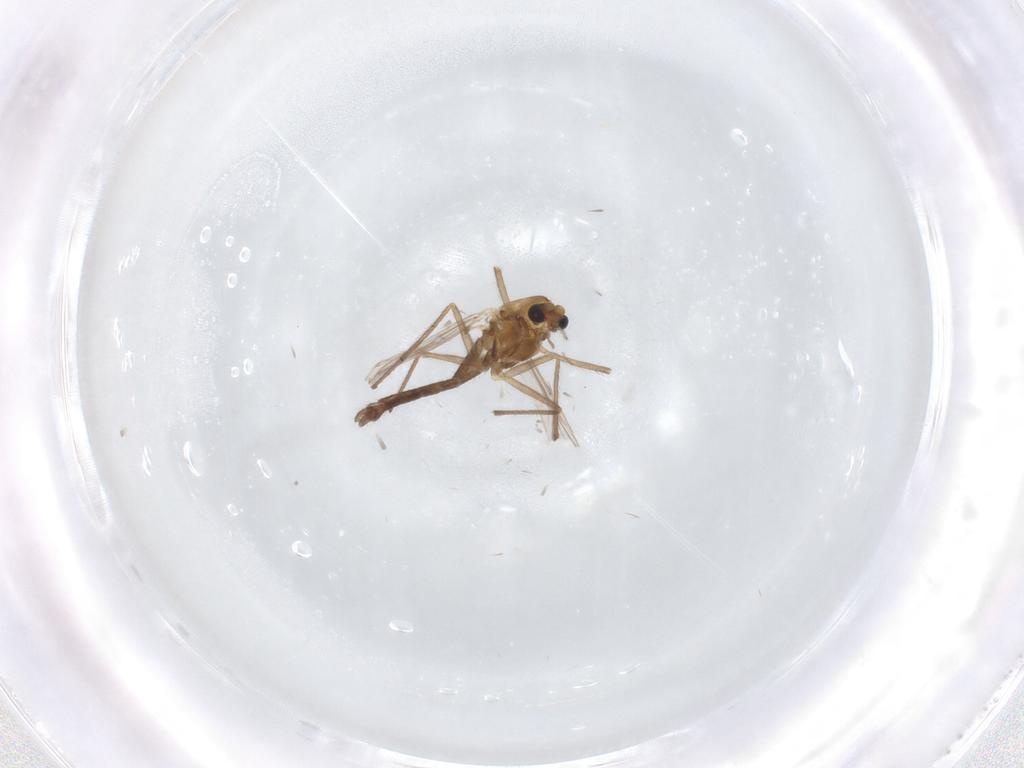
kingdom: Animalia
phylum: Arthropoda
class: Insecta
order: Diptera
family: Chironomidae
